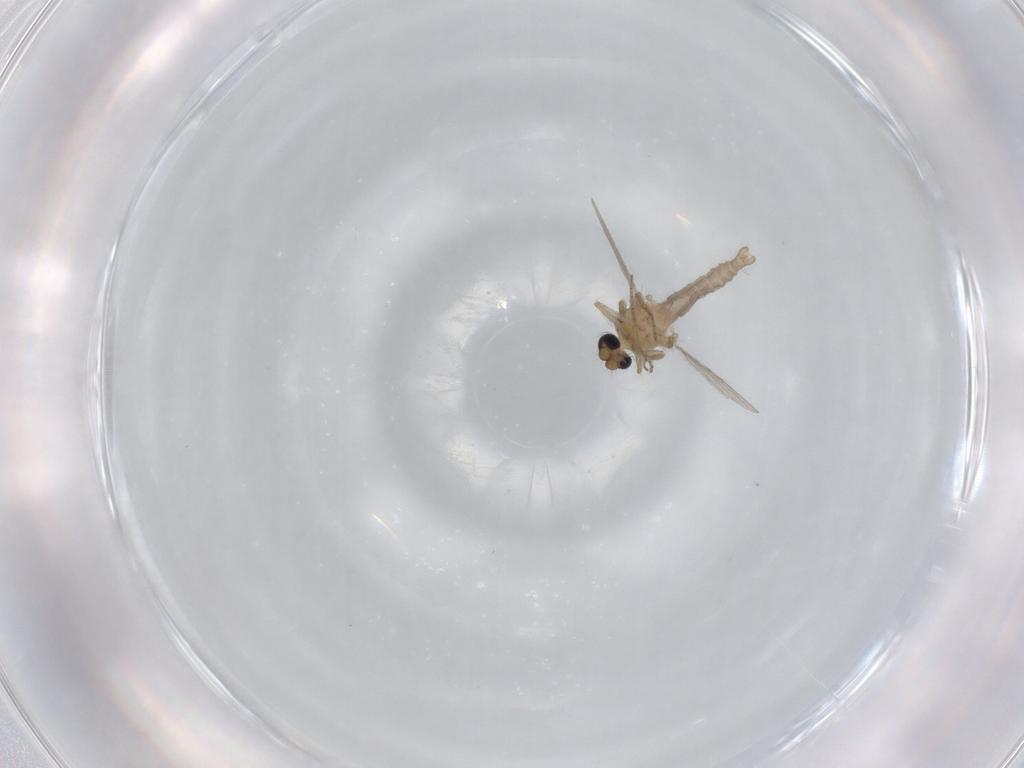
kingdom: Animalia
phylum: Arthropoda
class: Insecta
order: Diptera
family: Ceratopogonidae
